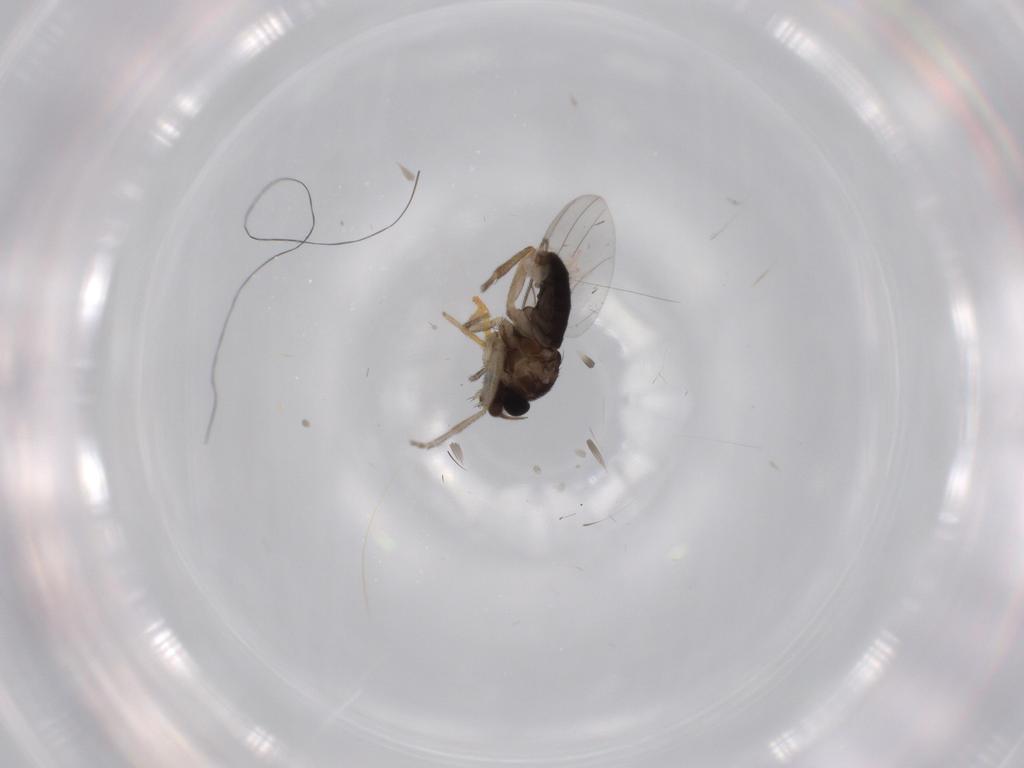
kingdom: Animalia
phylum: Arthropoda
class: Insecta
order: Diptera
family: Phoridae
